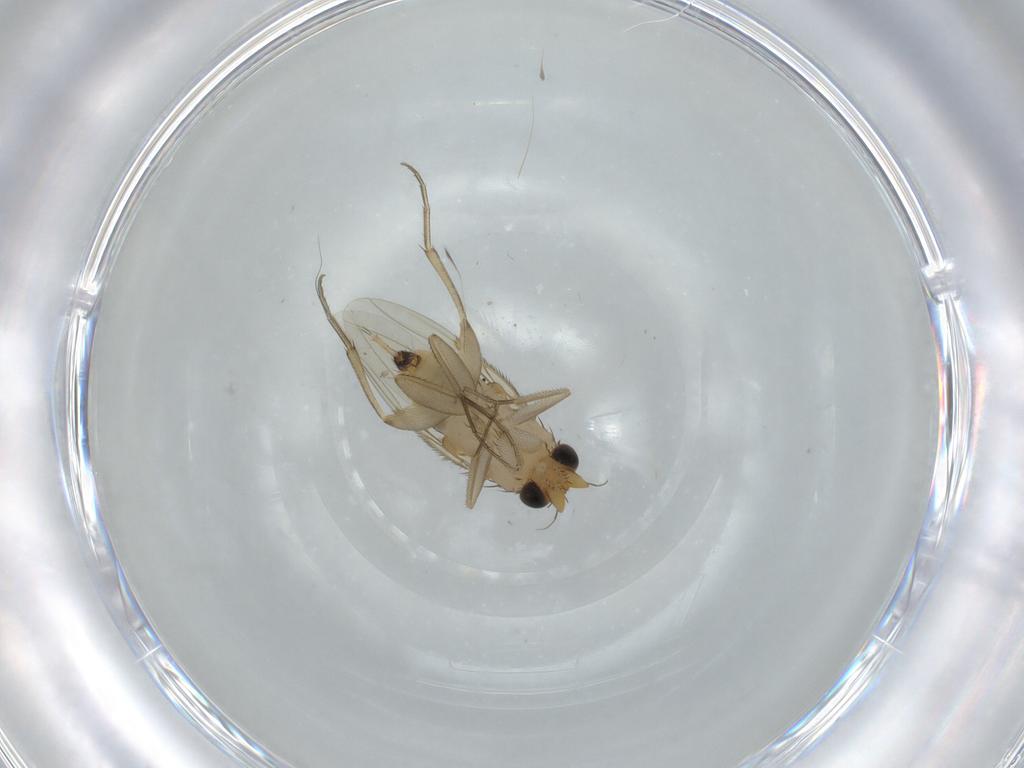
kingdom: Animalia
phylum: Arthropoda
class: Insecta
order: Diptera
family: Phoridae
